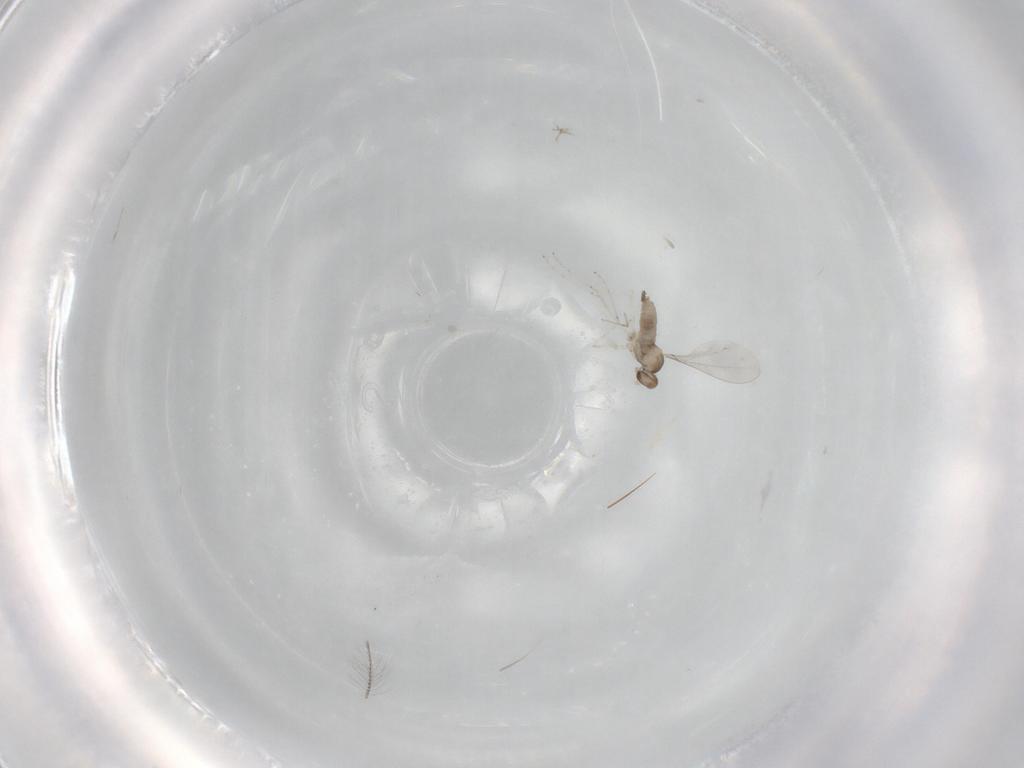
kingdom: Animalia
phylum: Arthropoda
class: Insecta
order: Diptera
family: Cecidomyiidae
